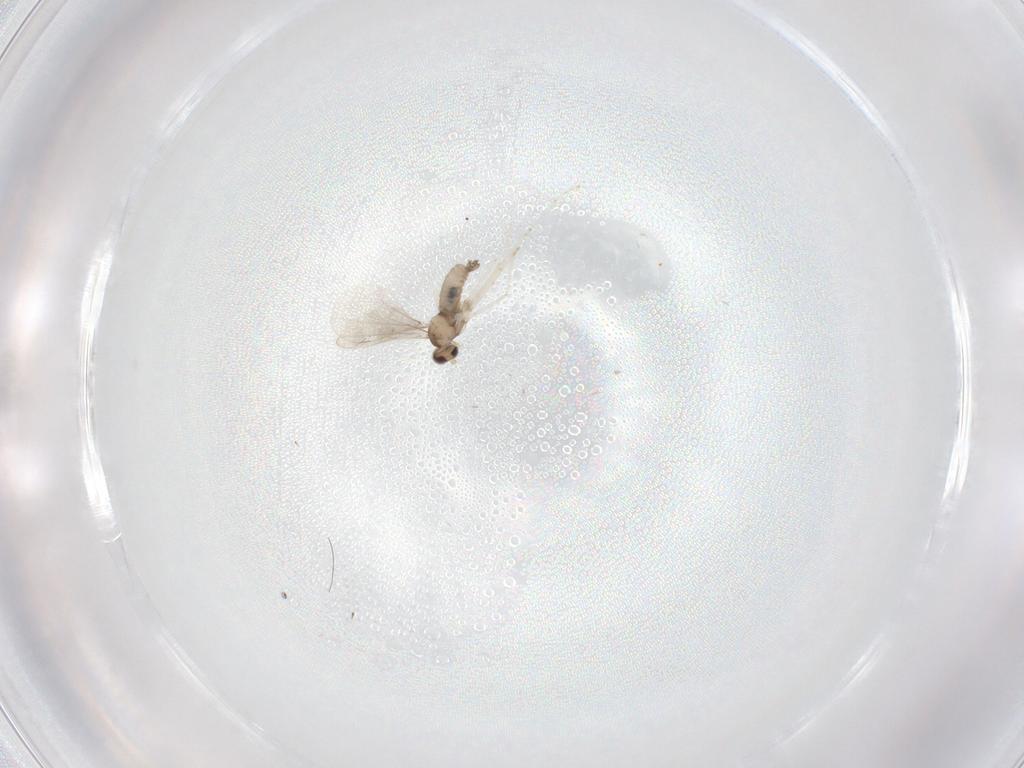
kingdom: Animalia
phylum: Arthropoda
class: Insecta
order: Diptera
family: Cecidomyiidae
